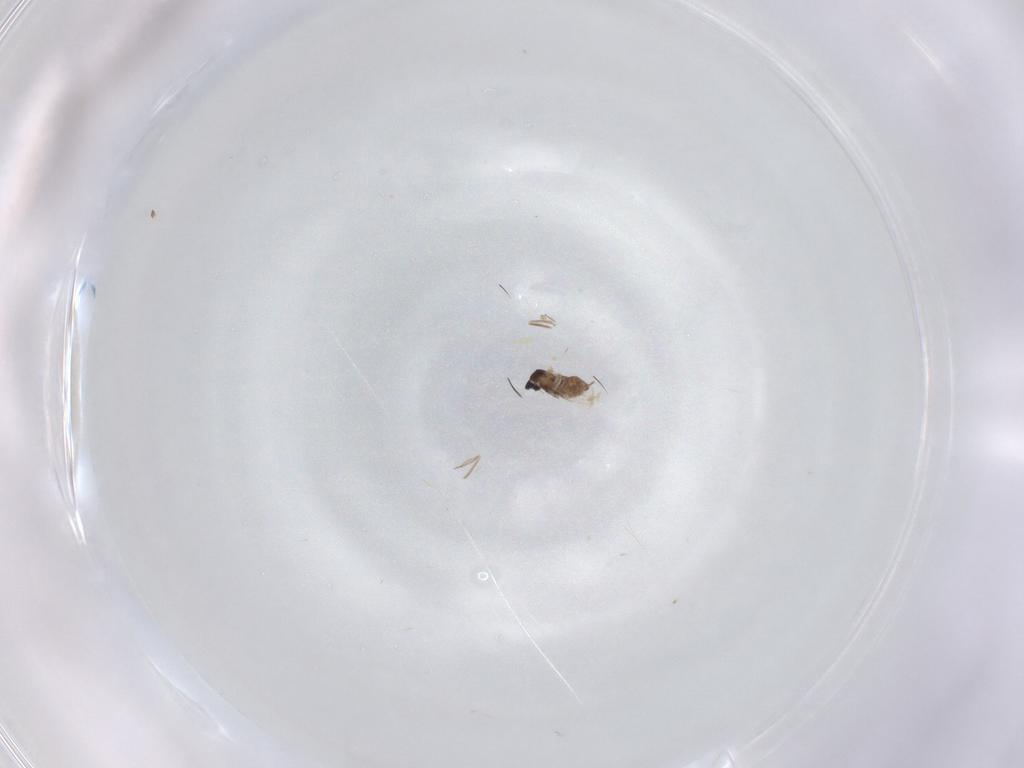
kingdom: Animalia
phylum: Arthropoda
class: Insecta
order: Diptera
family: Cecidomyiidae
